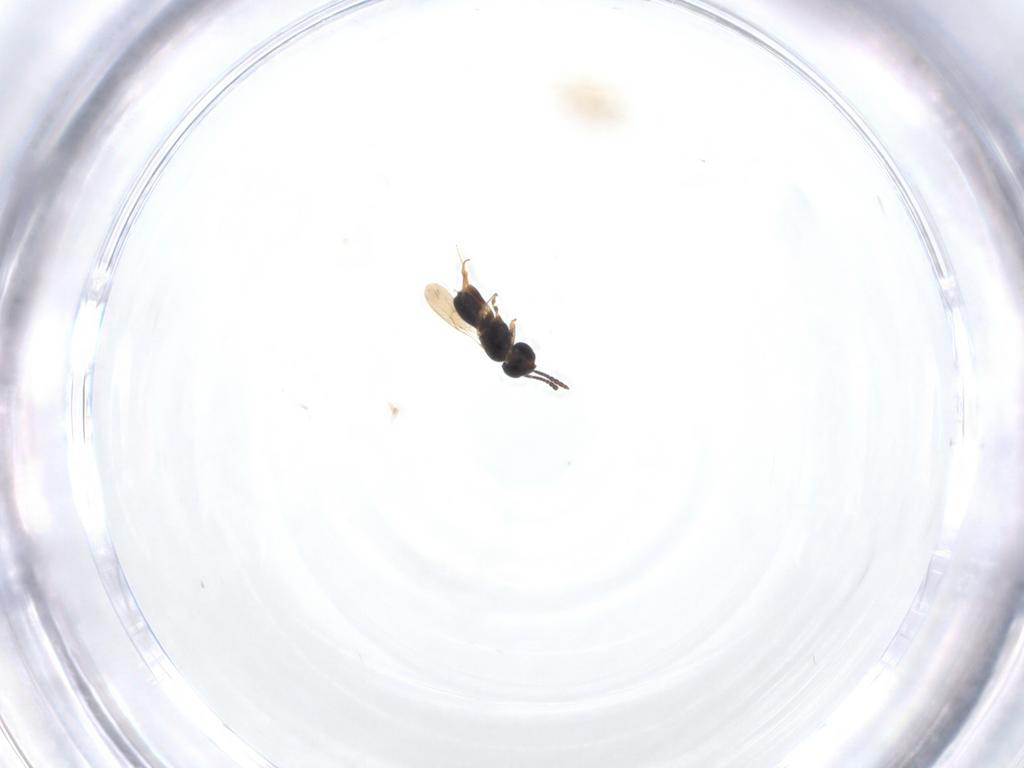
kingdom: Animalia
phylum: Arthropoda
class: Insecta
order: Hymenoptera
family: Scelionidae
